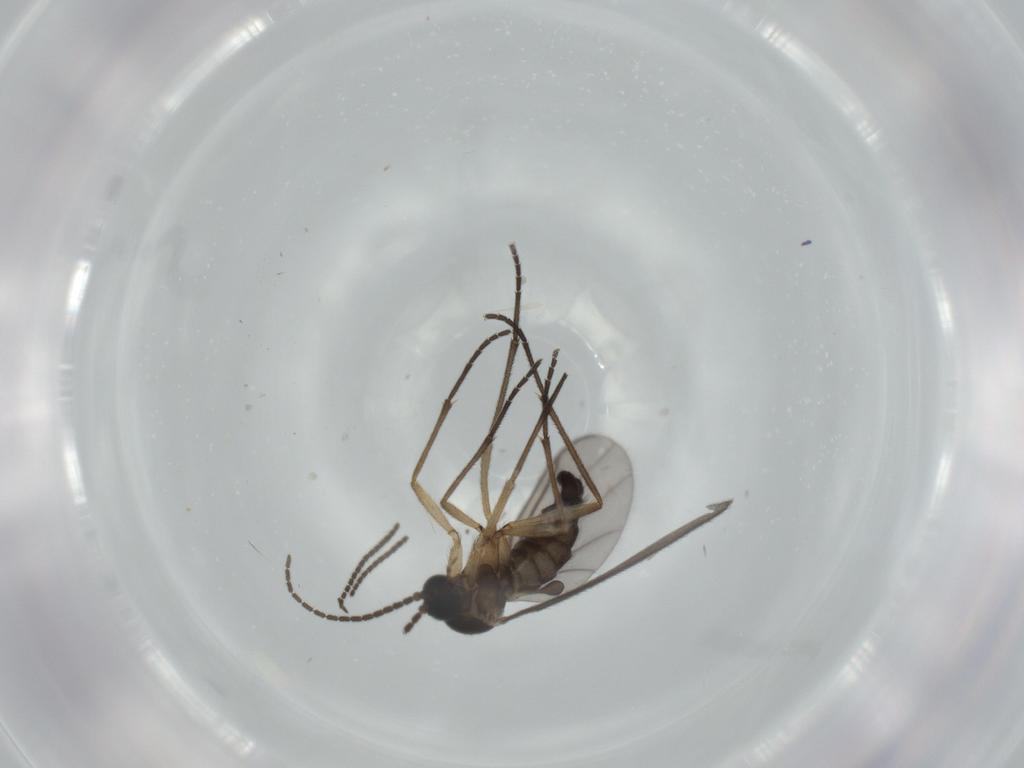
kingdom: Animalia
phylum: Arthropoda
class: Insecta
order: Diptera
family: Sciaridae
